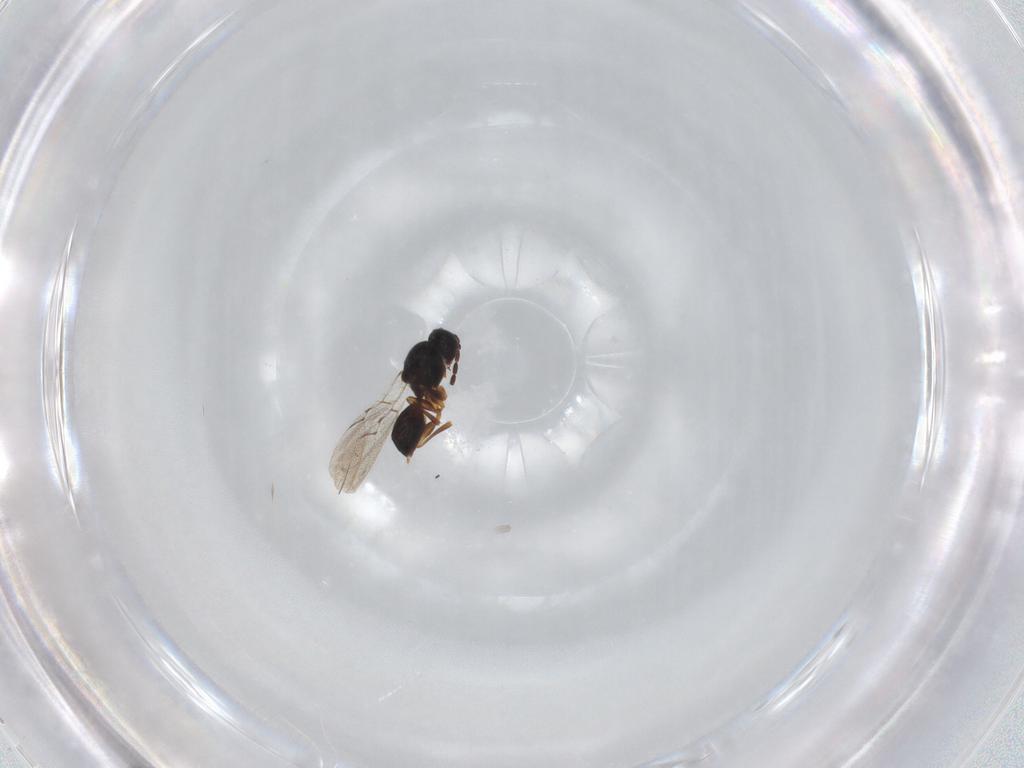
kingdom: Animalia
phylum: Arthropoda
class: Insecta
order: Hymenoptera
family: Figitidae
